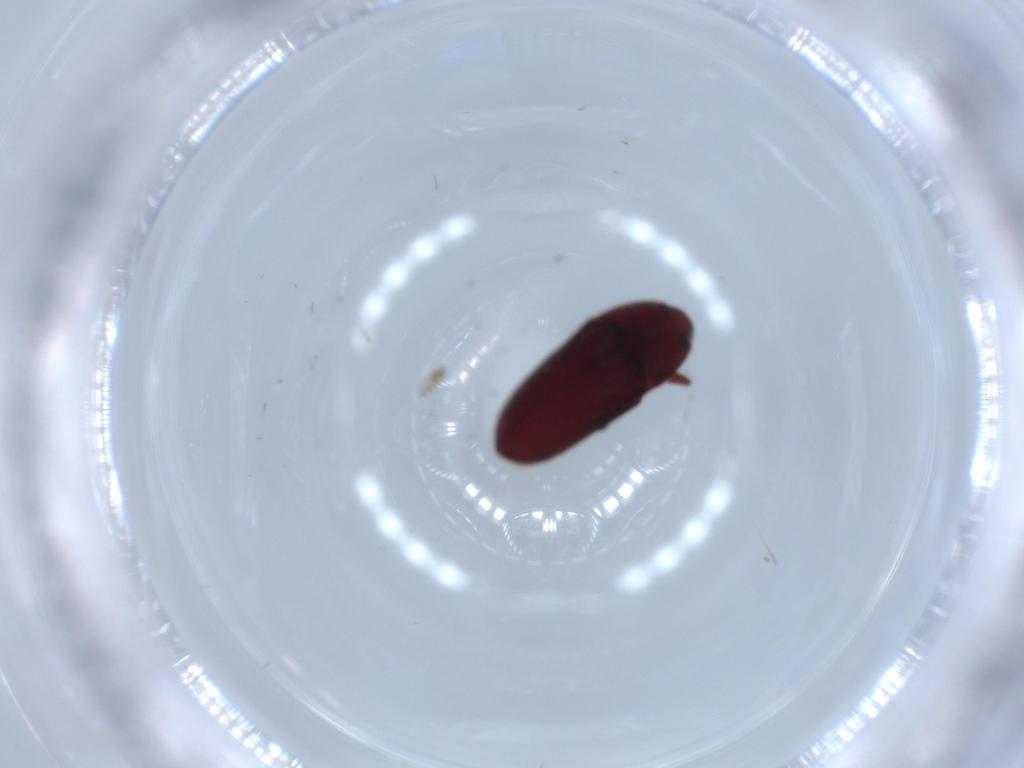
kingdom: Animalia
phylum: Arthropoda
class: Insecta
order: Coleoptera
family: Throscidae
